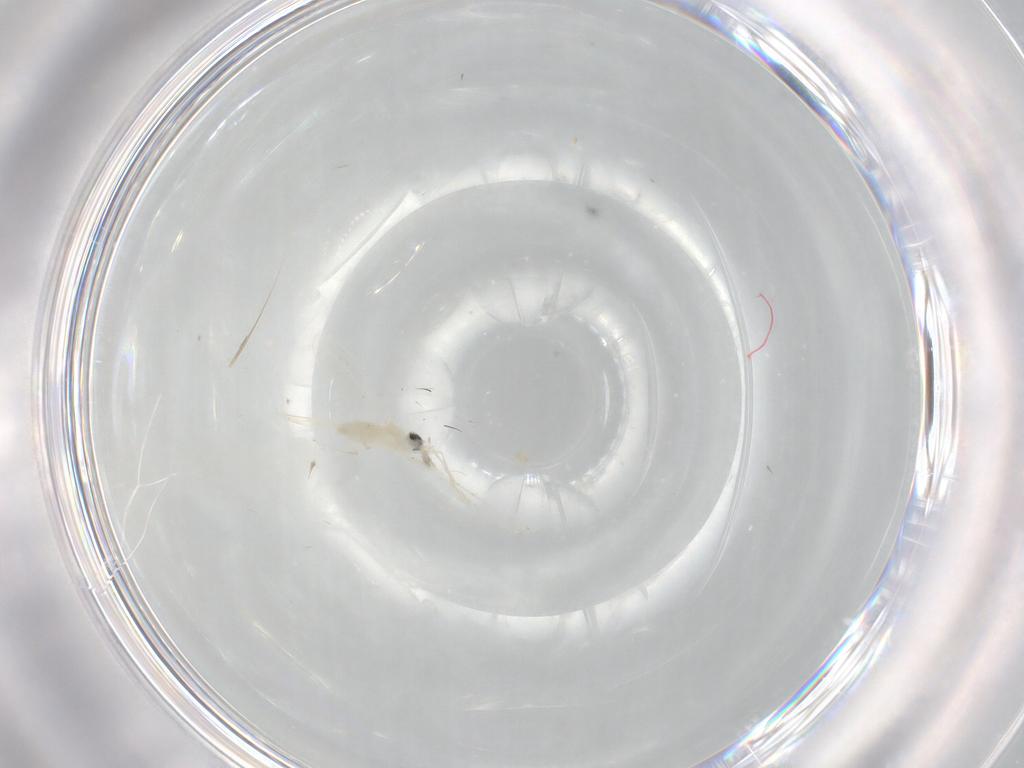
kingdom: Animalia
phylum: Arthropoda
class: Insecta
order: Diptera
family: Cecidomyiidae
